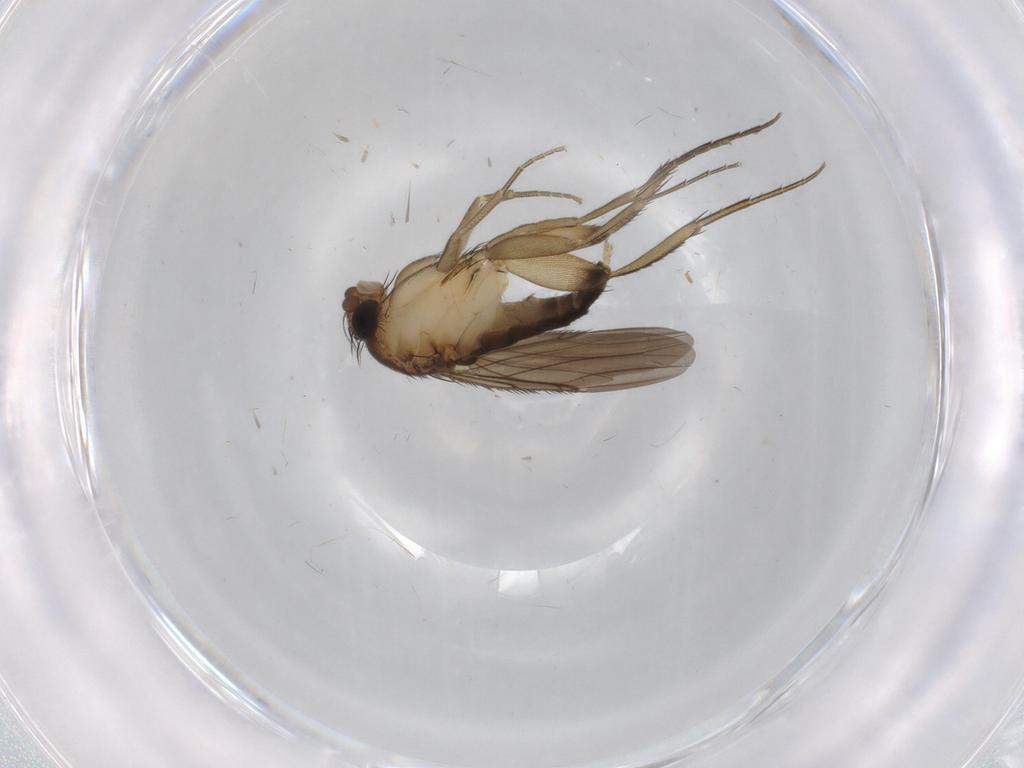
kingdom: Animalia
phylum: Arthropoda
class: Insecta
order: Diptera
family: Phoridae
